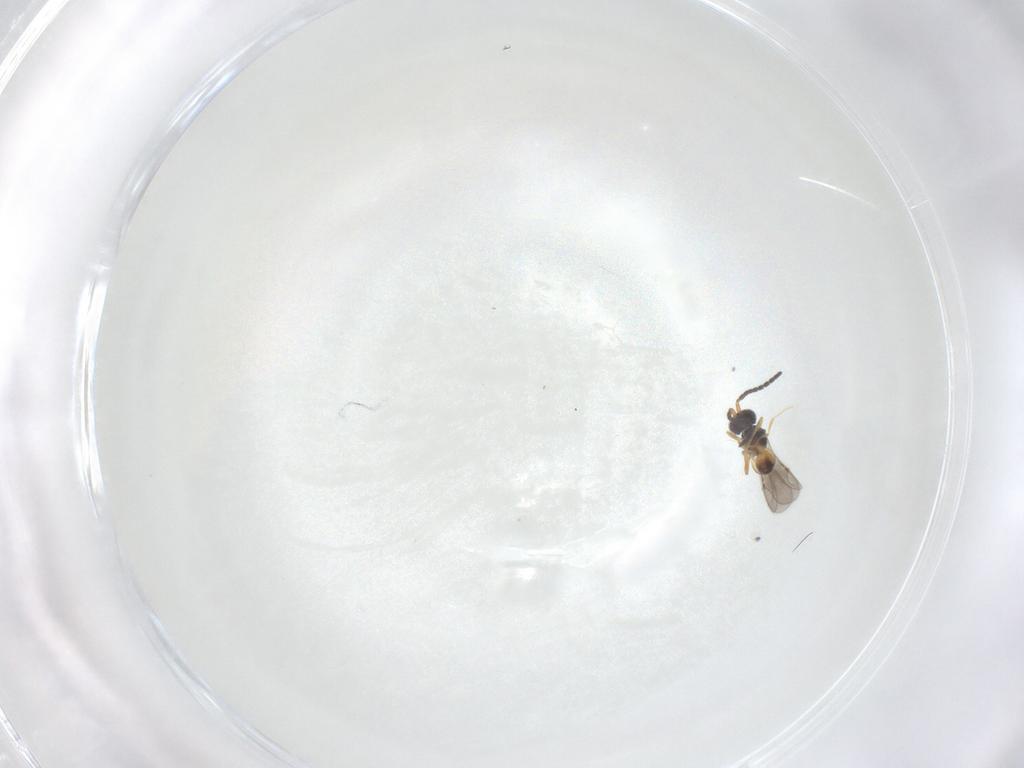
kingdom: Animalia
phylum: Arthropoda
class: Insecta
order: Hymenoptera
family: Ceraphronidae
